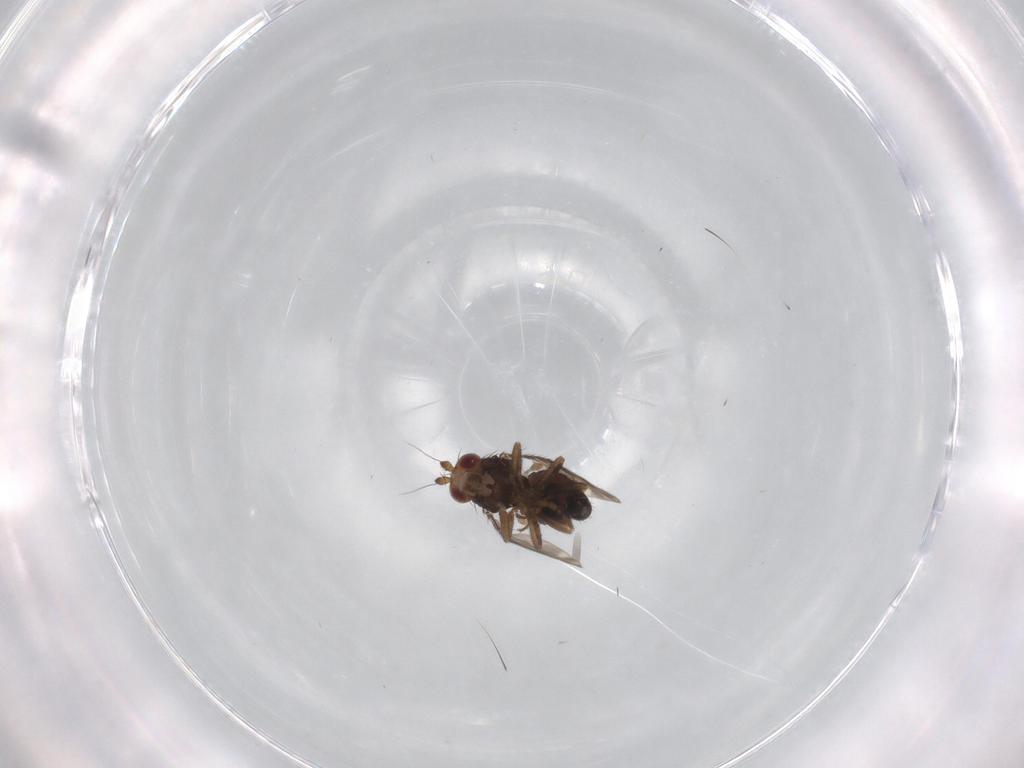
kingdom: Animalia
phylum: Arthropoda
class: Insecta
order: Diptera
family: Sphaeroceridae
